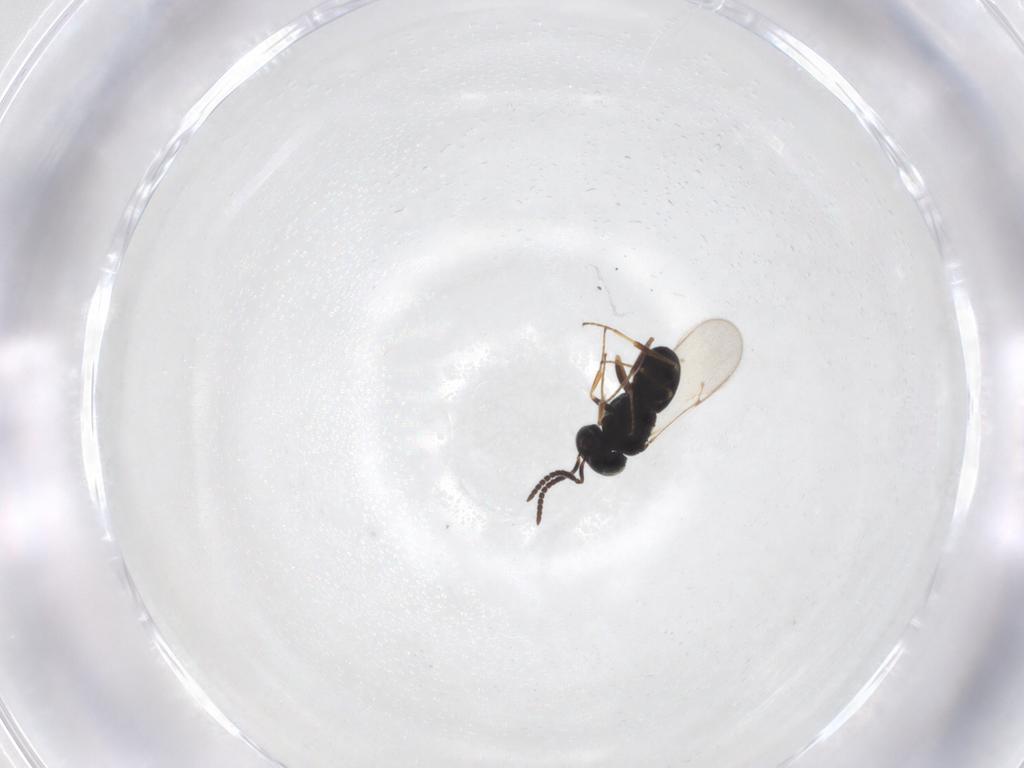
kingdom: Animalia
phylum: Arthropoda
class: Insecta
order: Hymenoptera
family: Scelionidae
